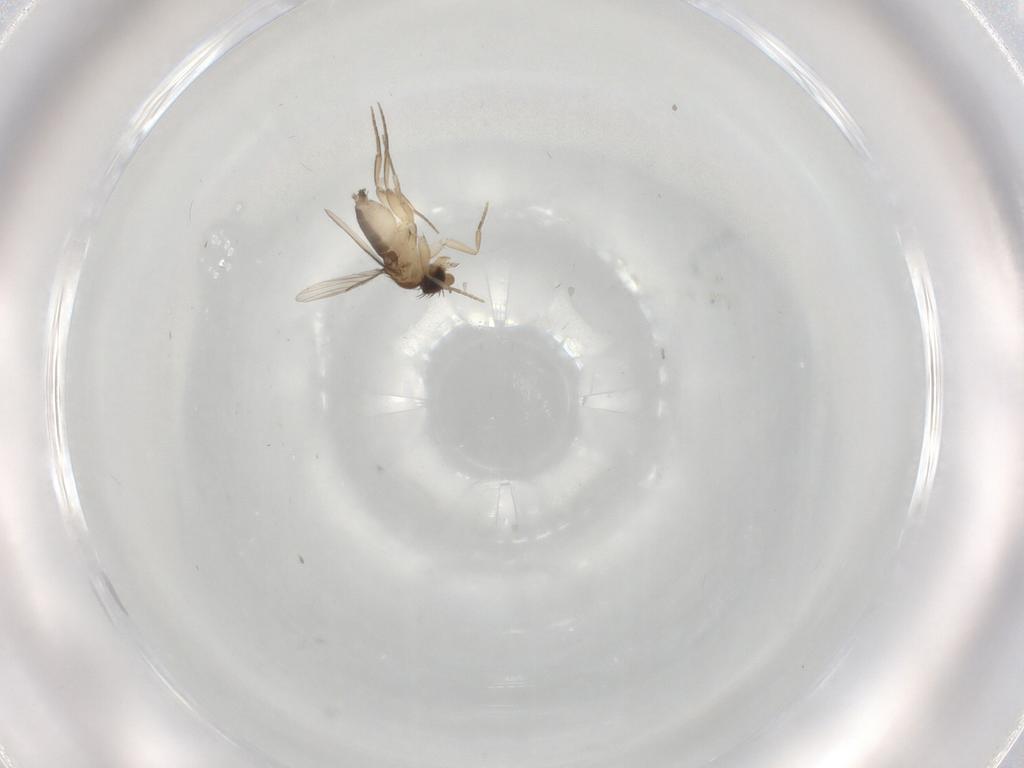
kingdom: Animalia
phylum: Arthropoda
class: Insecta
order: Diptera
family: Phoridae
